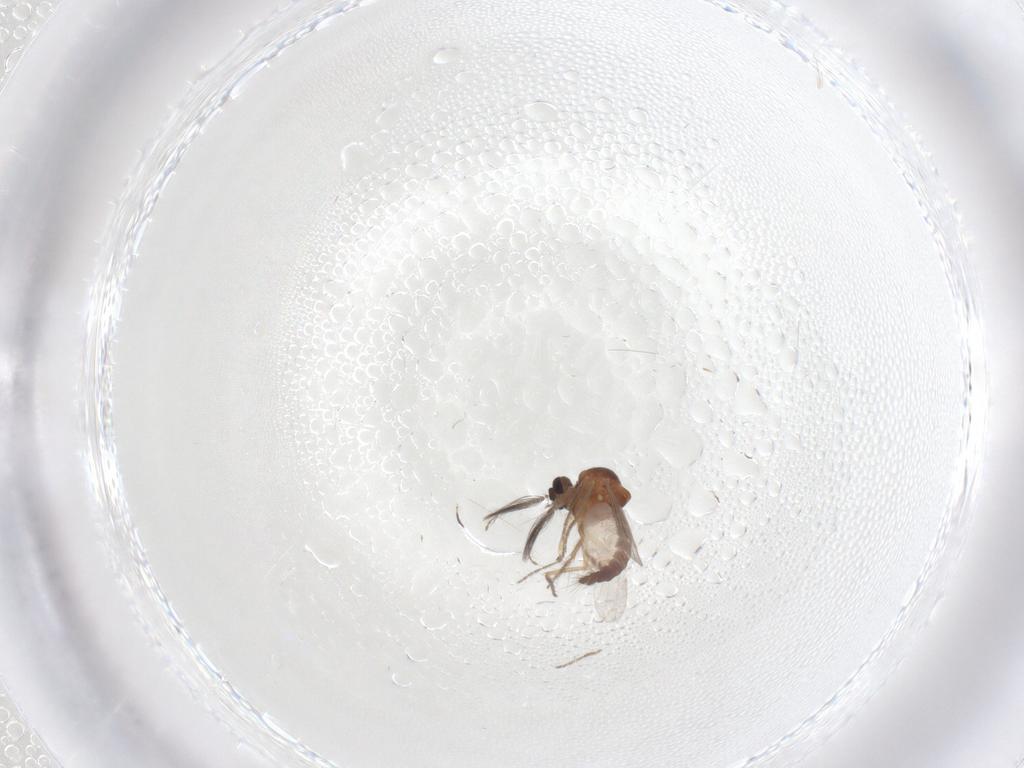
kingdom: Animalia
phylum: Arthropoda
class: Insecta
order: Diptera
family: Ceratopogonidae
